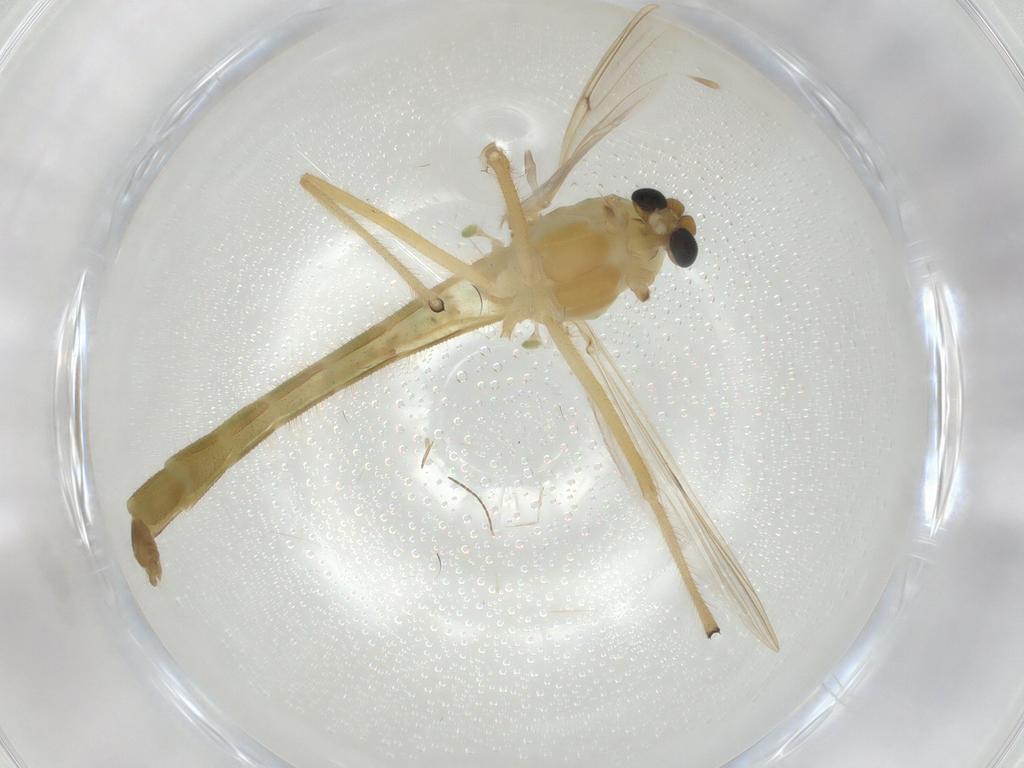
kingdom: Animalia
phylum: Arthropoda
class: Insecta
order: Diptera
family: Chironomidae
